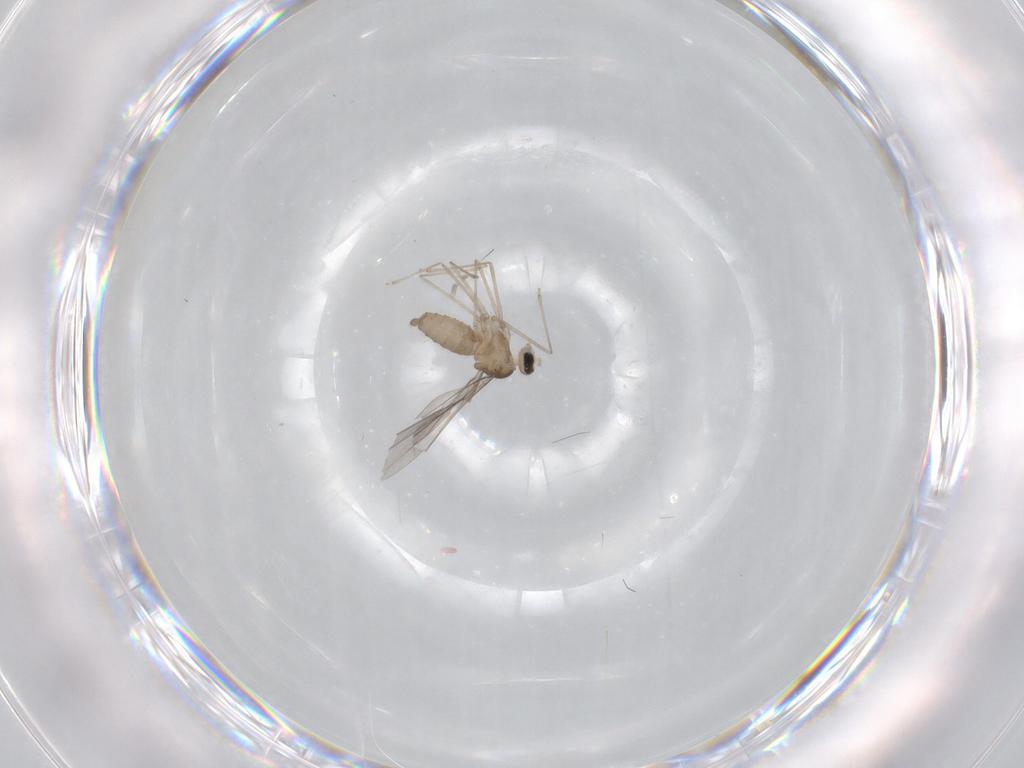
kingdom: Animalia
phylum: Arthropoda
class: Insecta
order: Diptera
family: Cecidomyiidae
